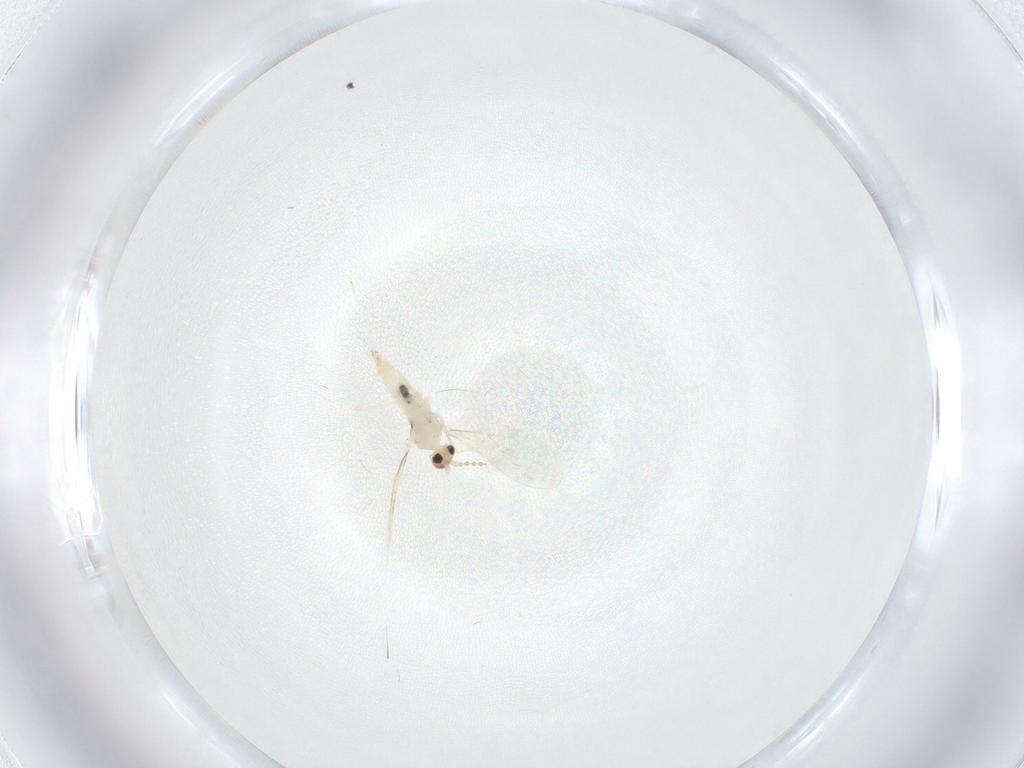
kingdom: Animalia
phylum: Arthropoda
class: Insecta
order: Diptera
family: Cecidomyiidae
